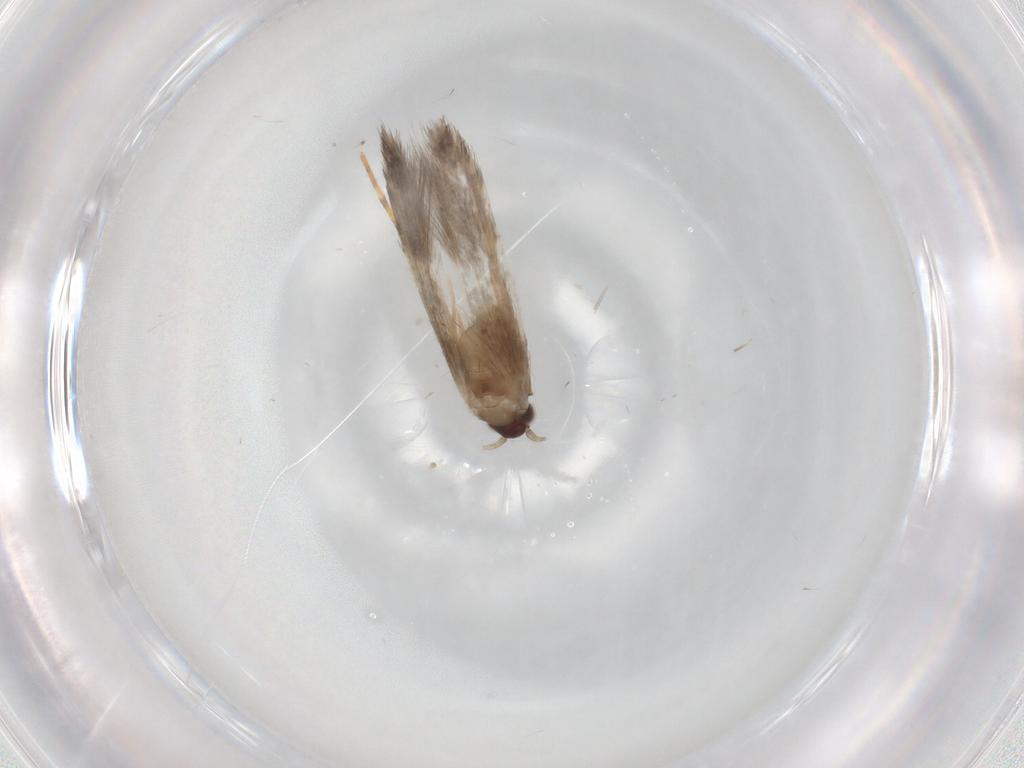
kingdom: Animalia
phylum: Arthropoda
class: Insecta
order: Lepidoptera
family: Tineidae
